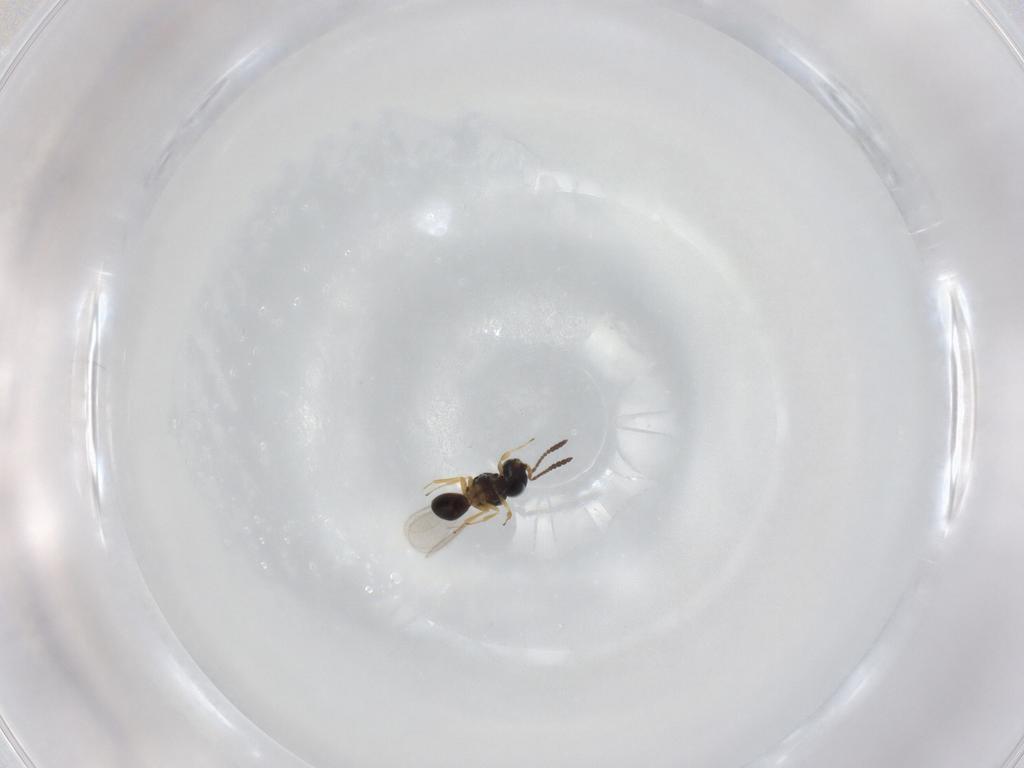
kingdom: Animalia
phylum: Arthropoda
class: Insecta
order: Hymenoptera
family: Scelionidae
